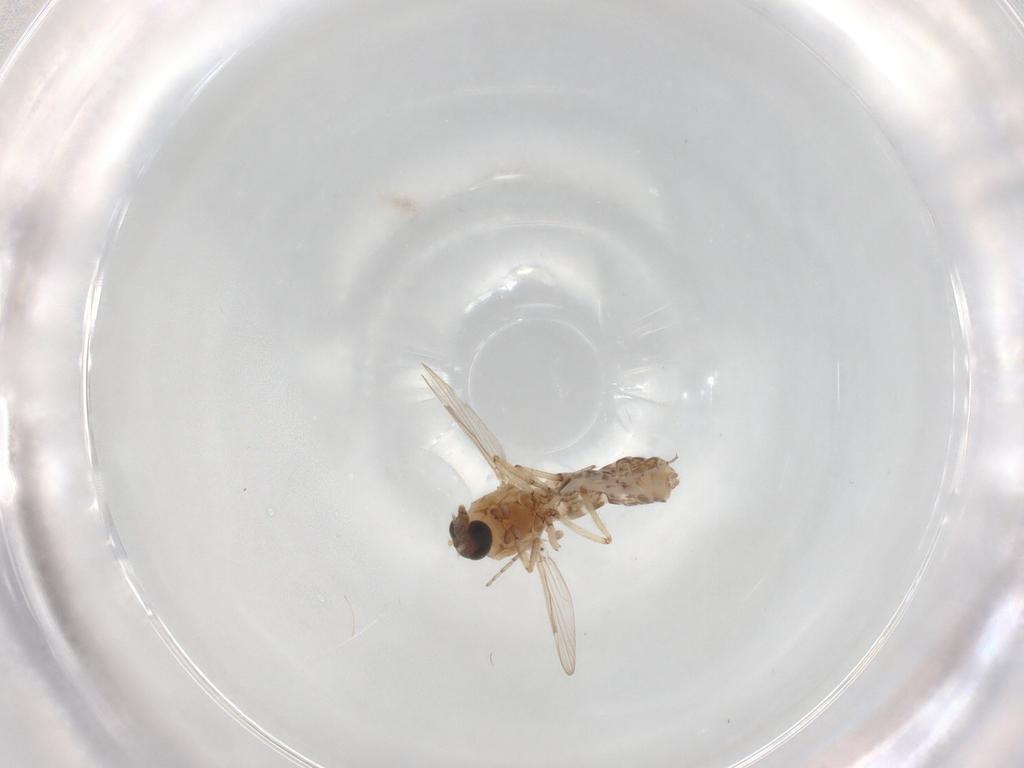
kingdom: Animalia
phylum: Arthropoda
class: Insecta
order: Diptera
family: Ceratopogonidae
